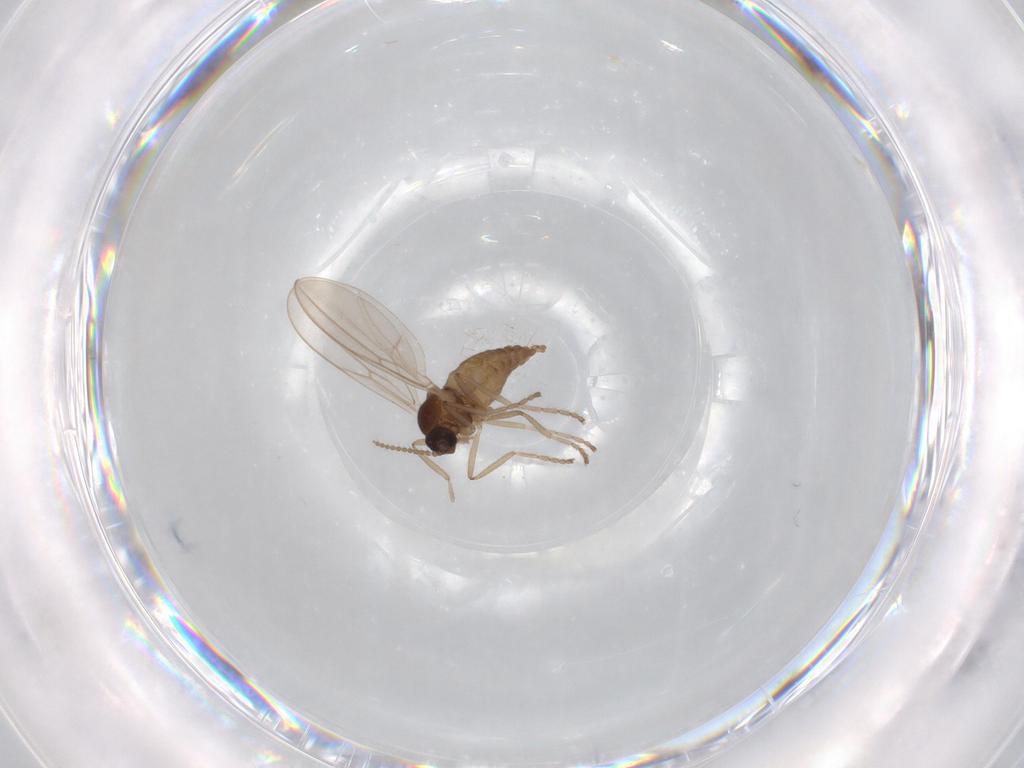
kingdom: Animalia
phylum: Arthropoda
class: Insecta
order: Diptera
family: Cecidomyiidae
